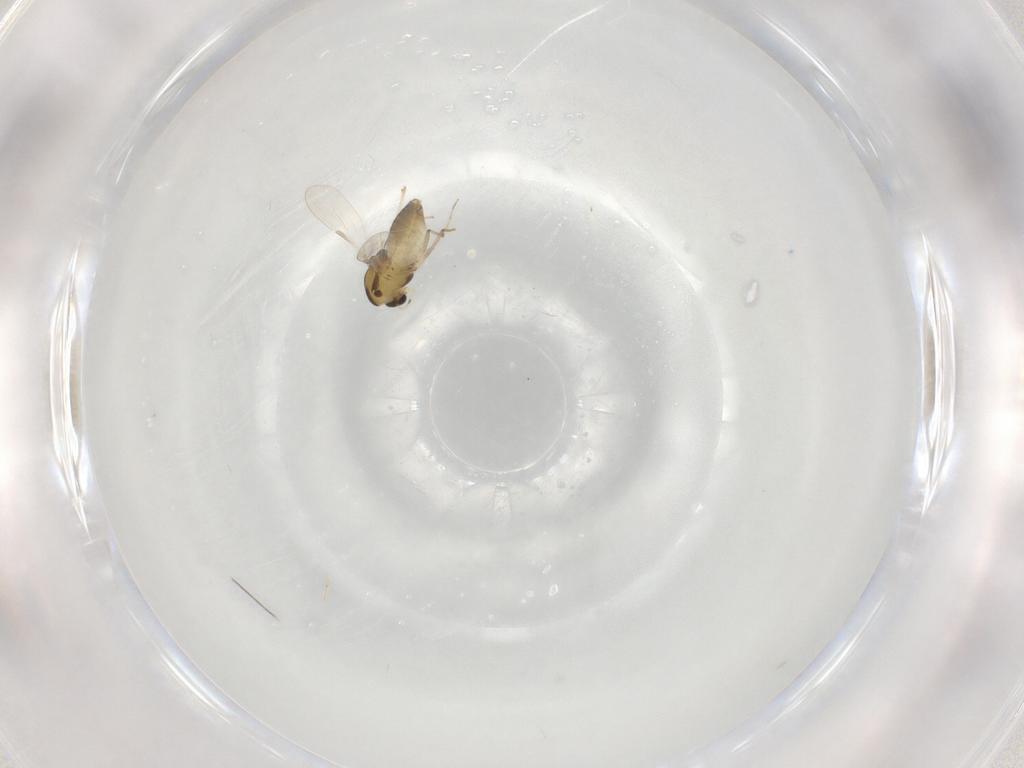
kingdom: Animalia
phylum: Arthropoda
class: Insecta
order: Diptera
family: Chironomidae
